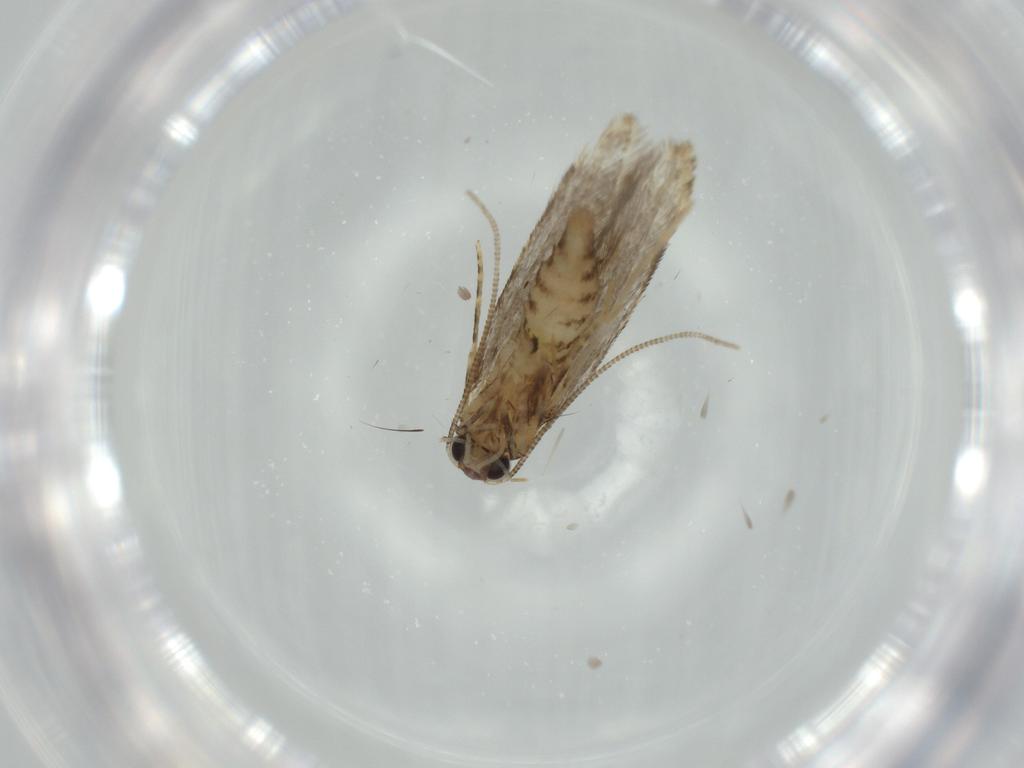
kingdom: Animalia
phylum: Arthropoda
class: Insecta
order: Lepidoptera
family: Tineidae
